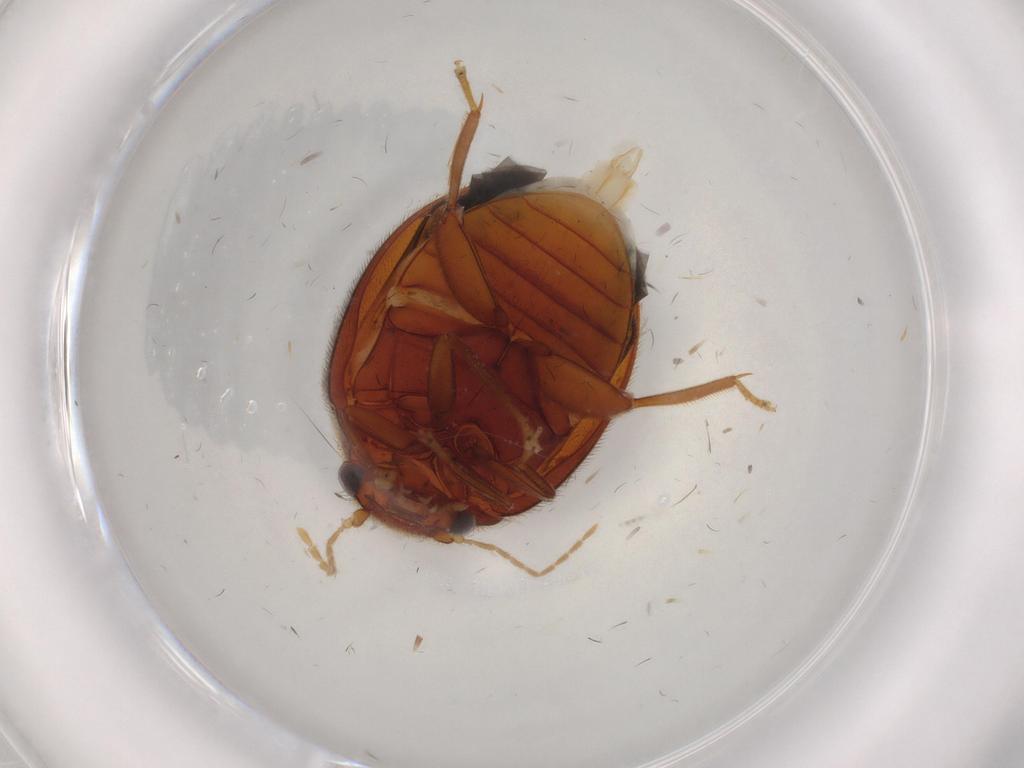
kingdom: Animalia
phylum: Arthropoda
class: Insecta
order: Coleoptera
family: Scirtidae
